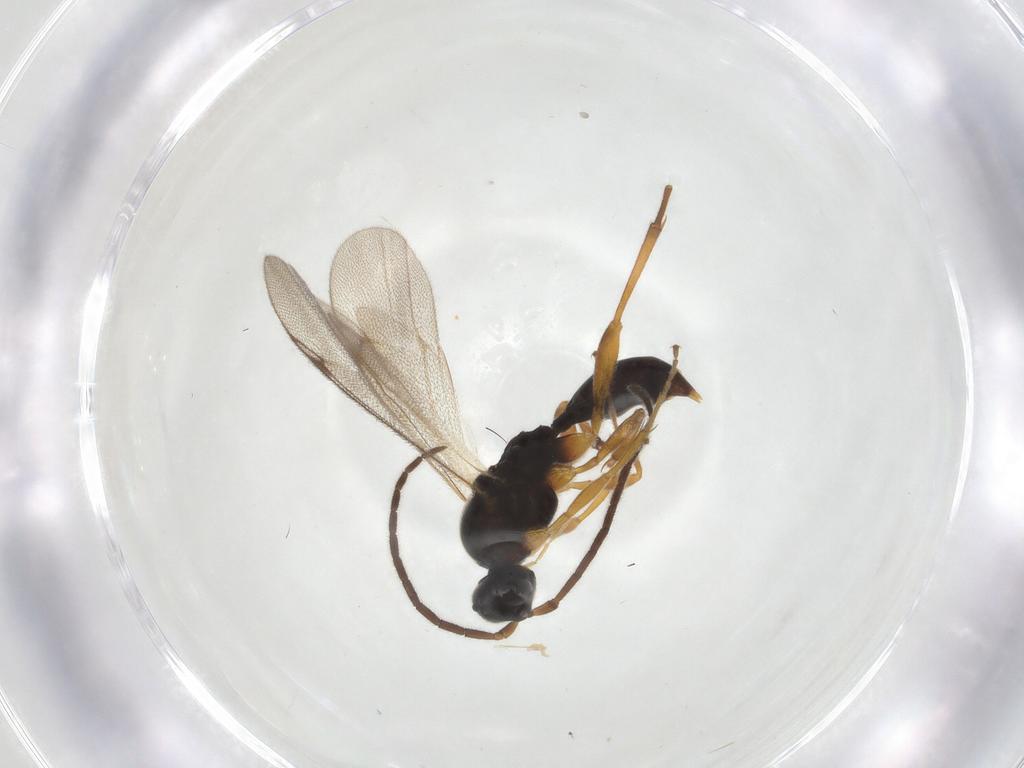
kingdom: Animalia
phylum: Arthropoda
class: Insecta
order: Hymenoptera
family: Proctotrupidae
